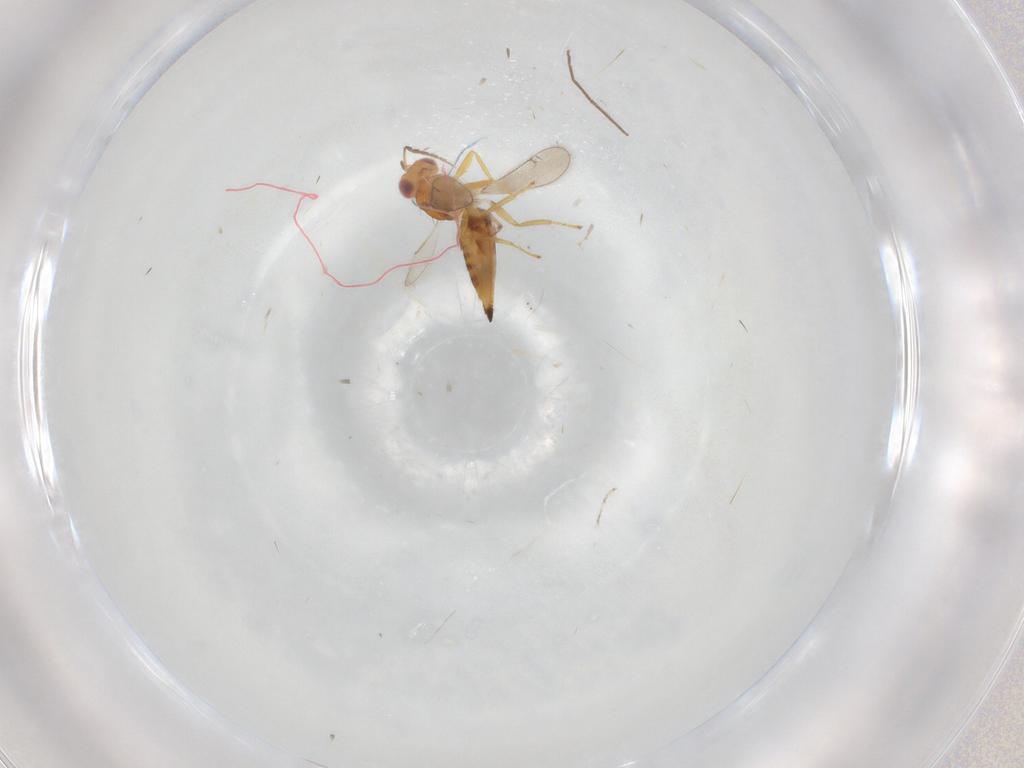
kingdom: Animalia
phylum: Arthropoda
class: Insecta
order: Hymenoptera
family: Eulophidae
